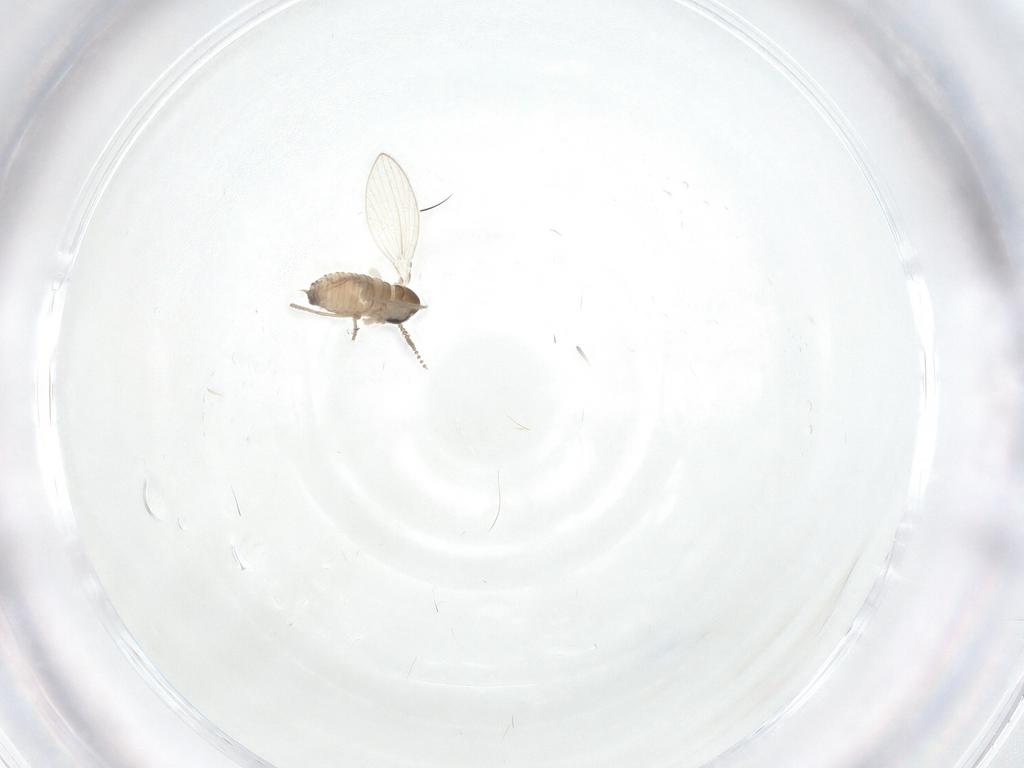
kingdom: Animalia
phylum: Arthropoda
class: Insecta
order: Diptera
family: Psychodidae
